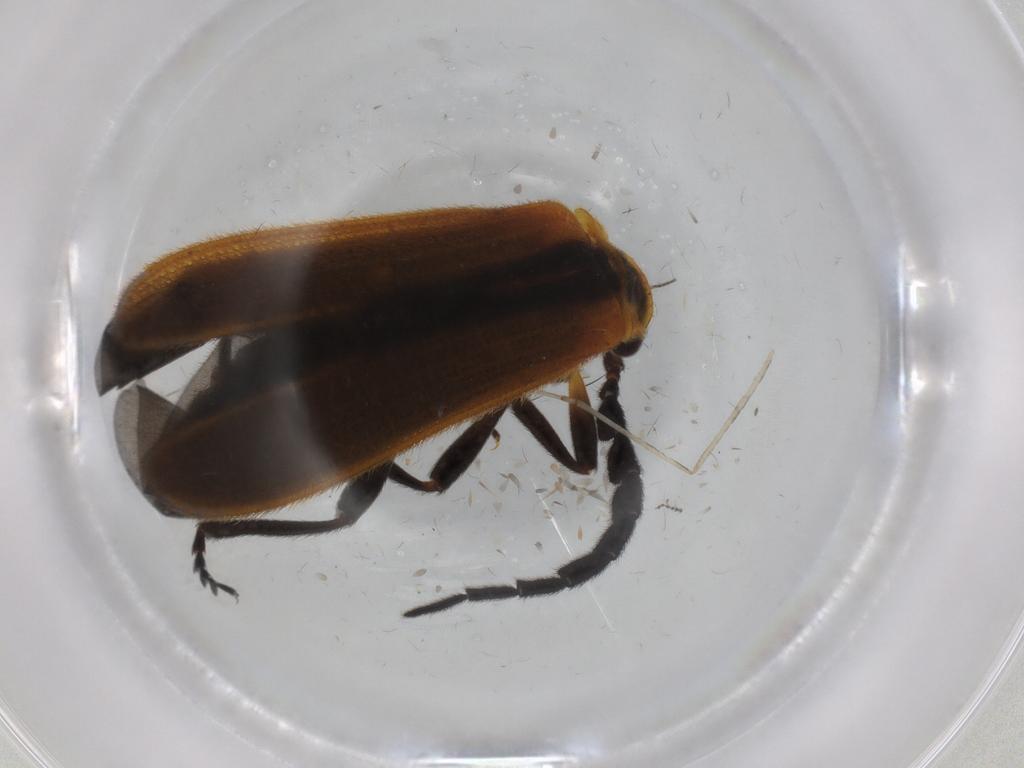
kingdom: Animalia
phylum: Arthropoda
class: Insecta
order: Coleoptera
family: Lycidae
